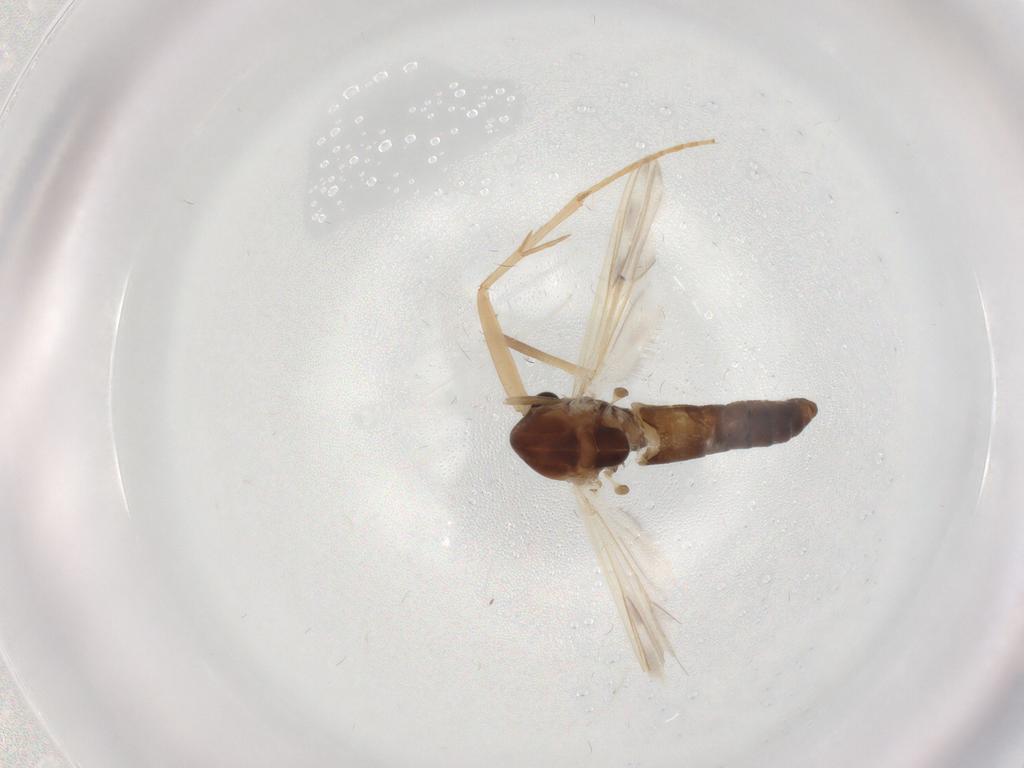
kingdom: Animalia
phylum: Arthropoda
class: Insecta
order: Diptera
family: Chironomidae
